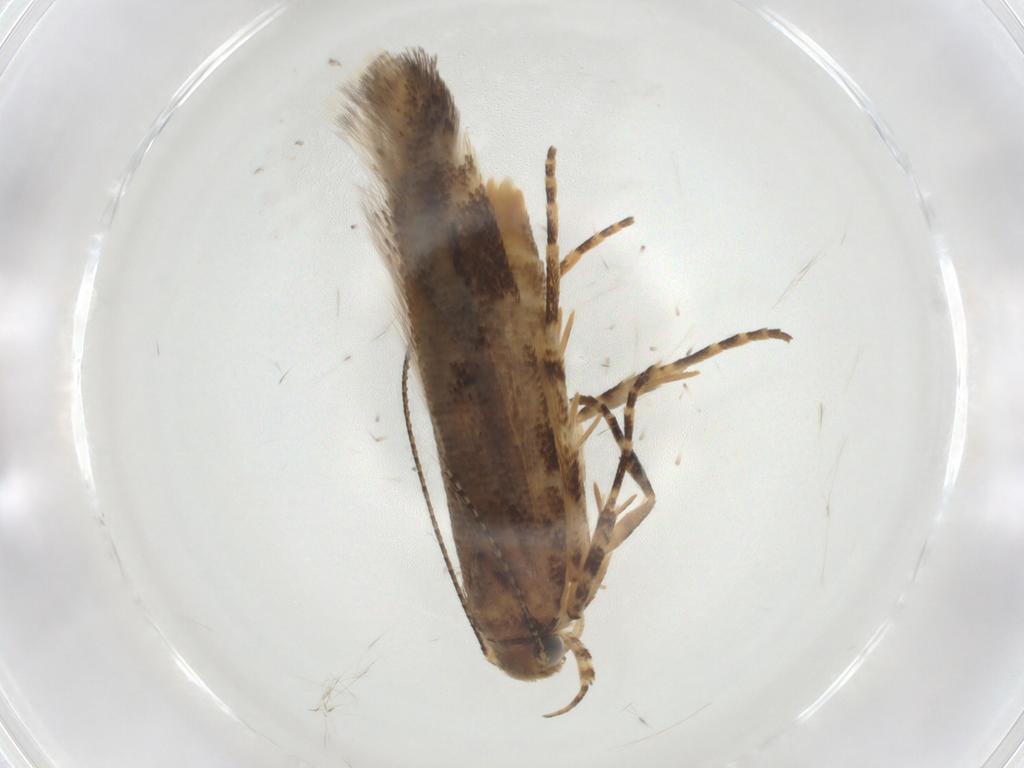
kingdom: Animalia
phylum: Arthropoda
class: Insecta
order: Lepidoptera
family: Gelechiidae
